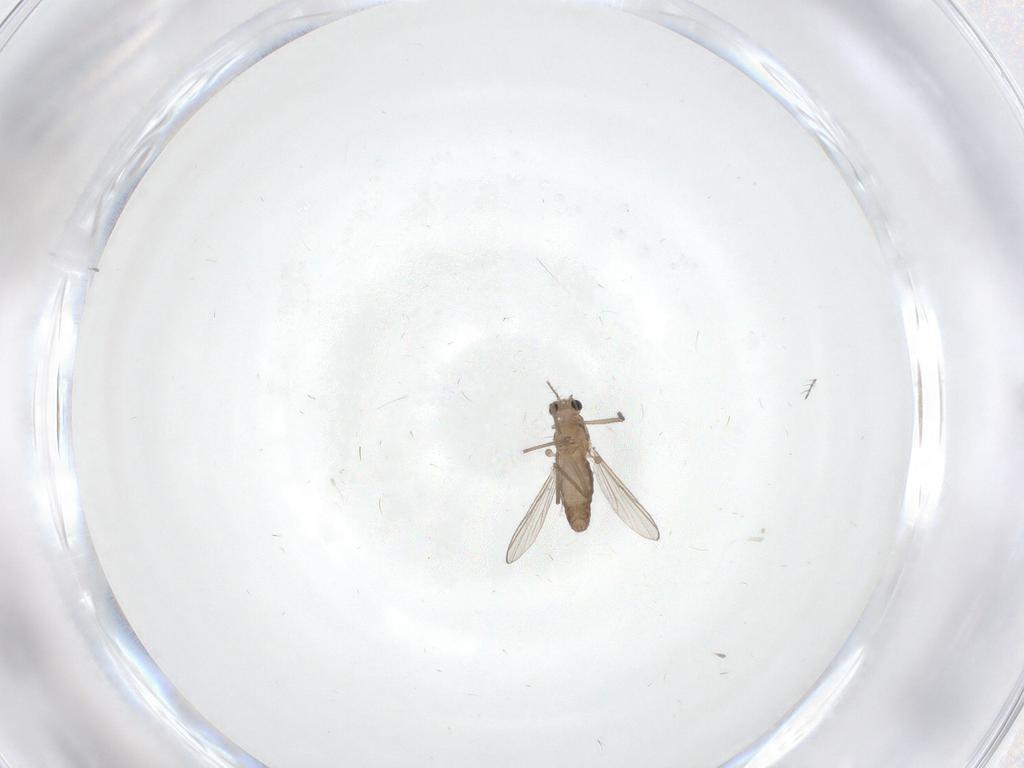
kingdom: Animalia
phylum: Arthropoda
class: Insecta
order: Diptera
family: Chironomidae
